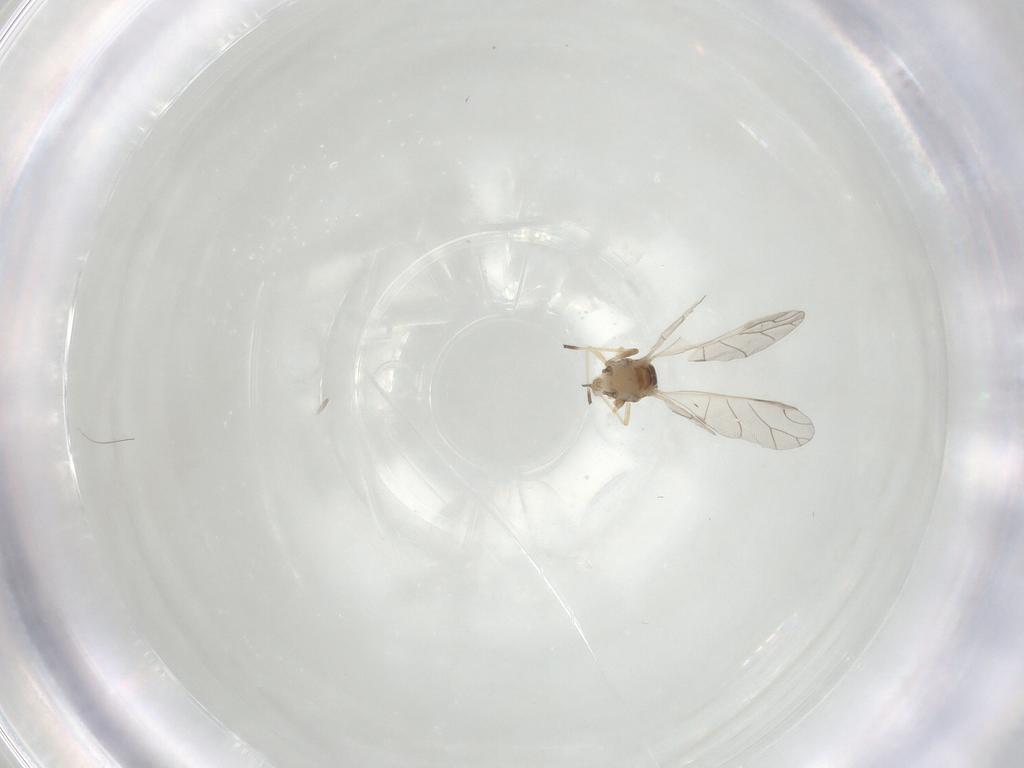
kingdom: Animalia
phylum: Arthropoda
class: Insecta
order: Hemiptera
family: Aphididae
